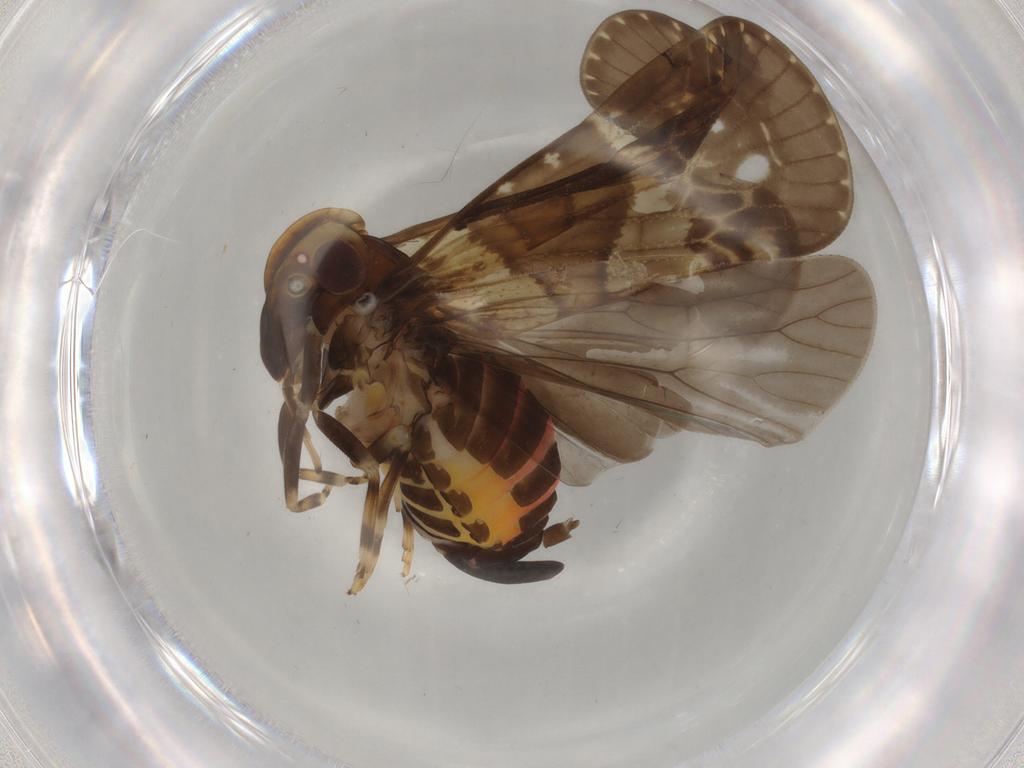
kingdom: Animalia
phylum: Arthropoda
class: Insecta
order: Hemiptera
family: Cixiidae
